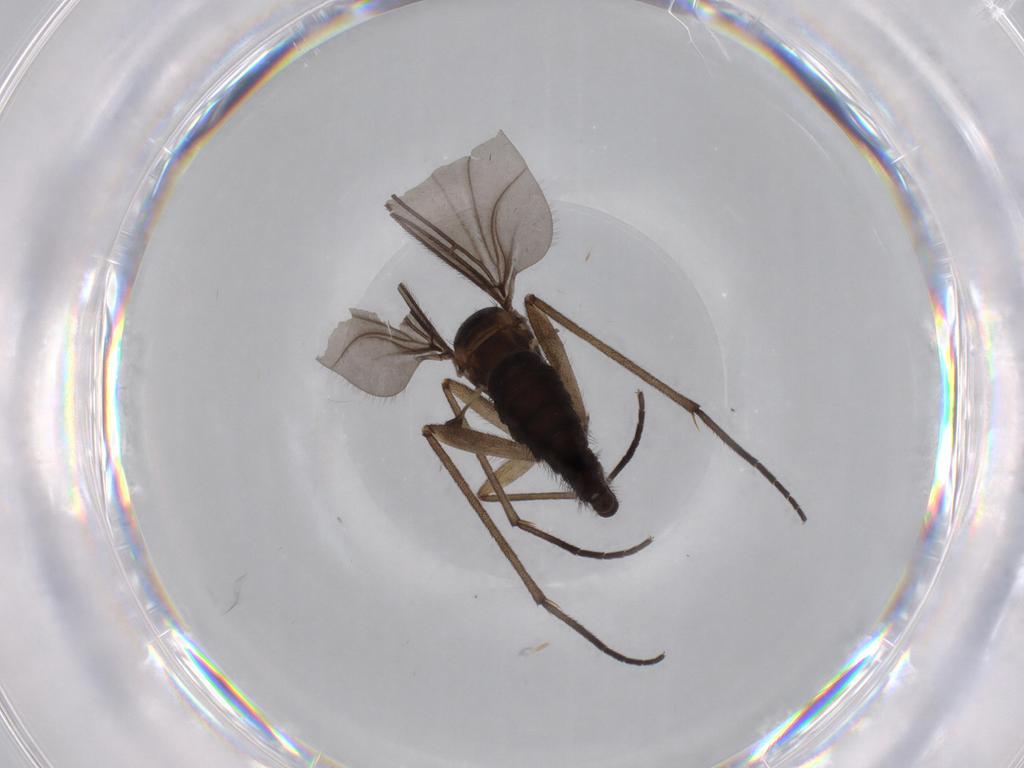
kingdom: Animalia
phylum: Arthropoda
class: Insecta
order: Diptera
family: Sciaridae
